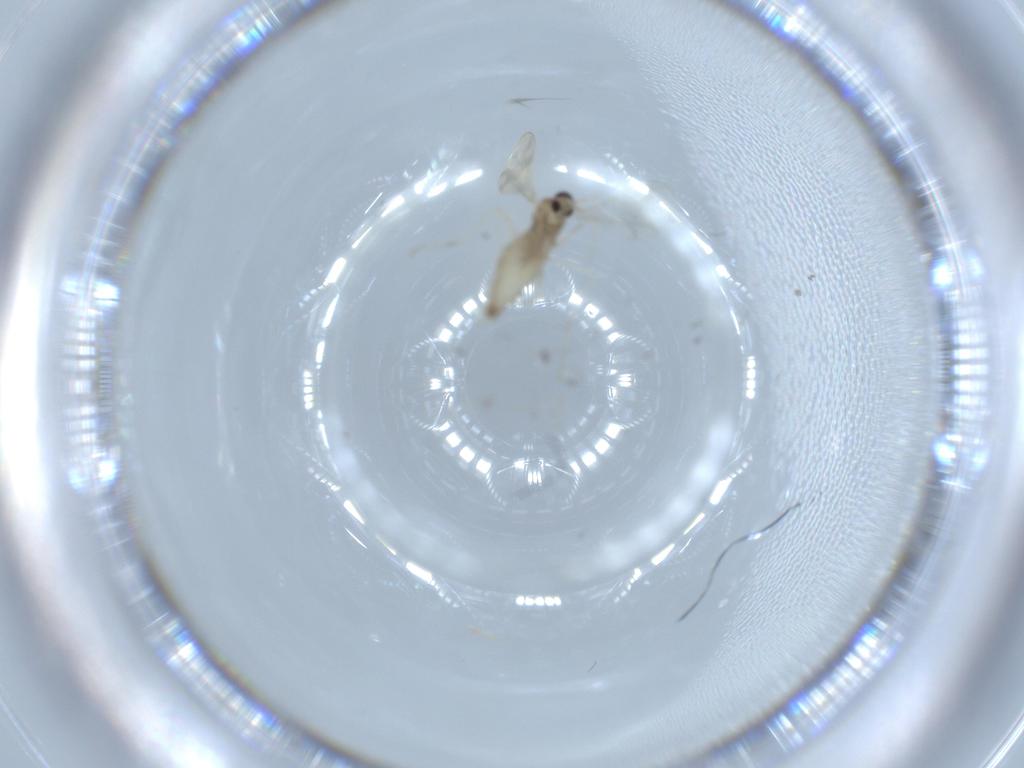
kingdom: Animalia
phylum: Arthropoda
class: Insecta
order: Diptera
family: Cecidomyiidae
